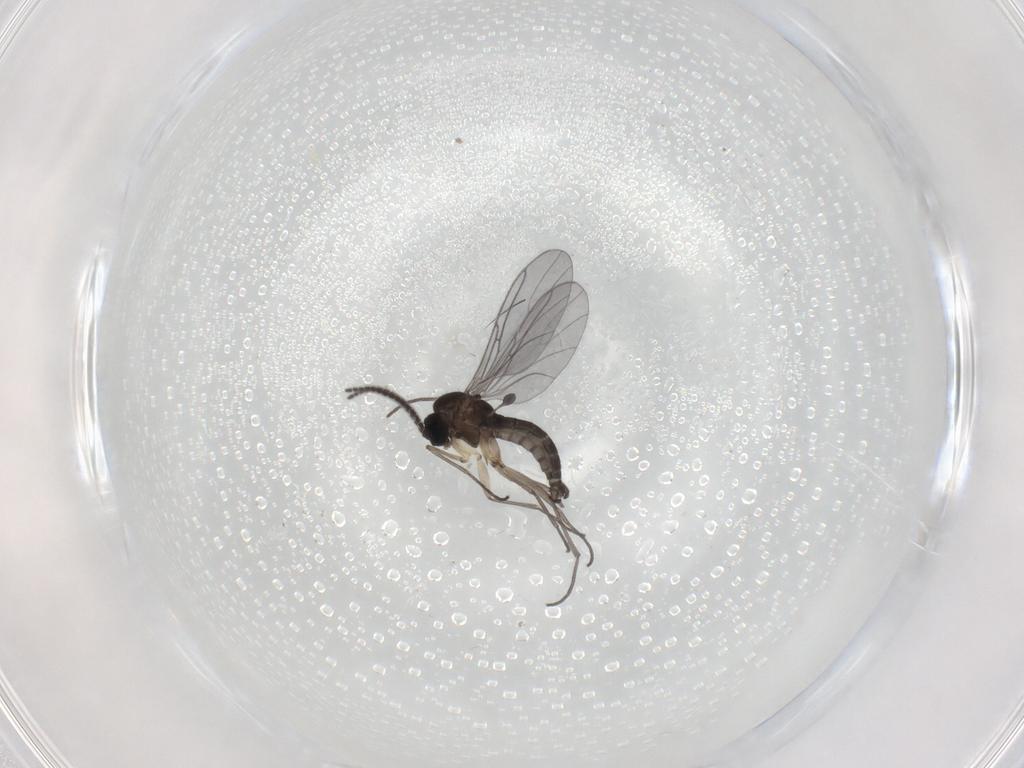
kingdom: Animalia
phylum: Arthropoda
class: Insecta
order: Diptera
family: Sciaridae
